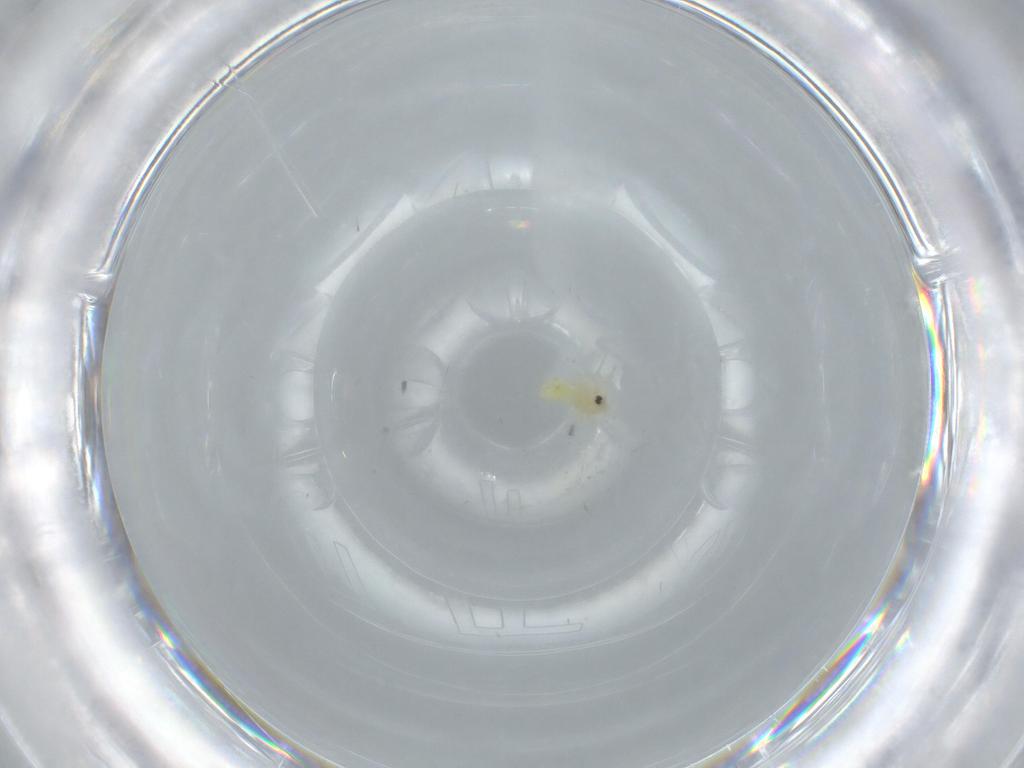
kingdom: Animalia
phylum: Arthropoda
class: Insecta
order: Hemiptera
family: Aleyrodidae
